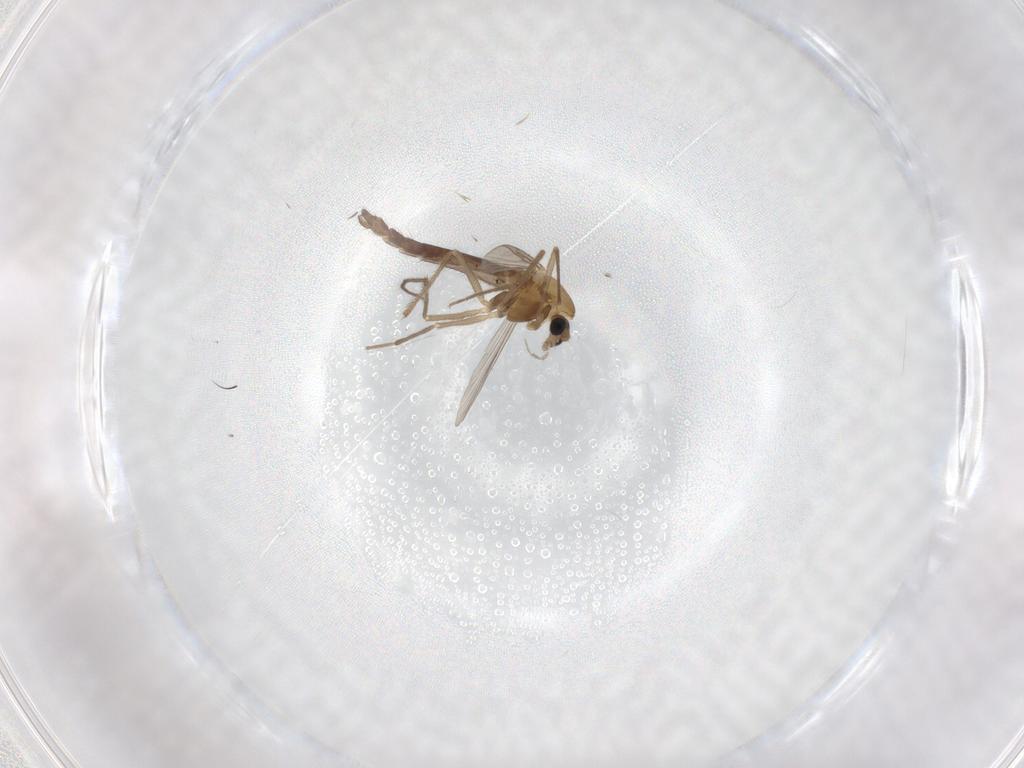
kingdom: Animalia
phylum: Arthropoda
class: Insecta
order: Diptera
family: Chironomidae
